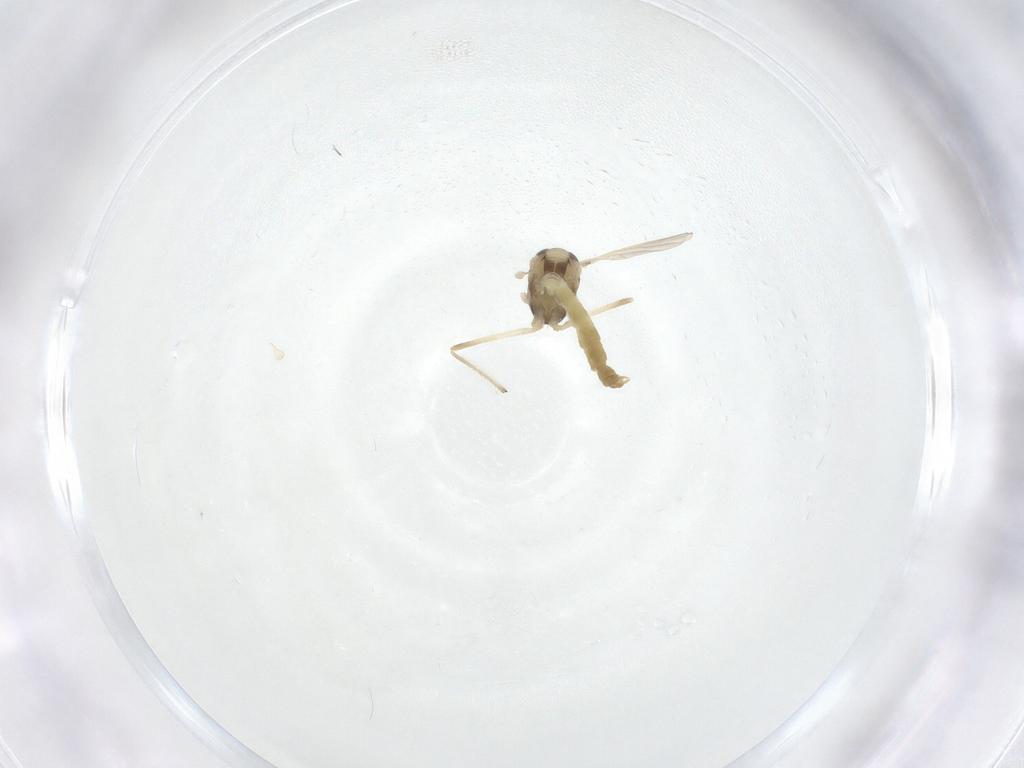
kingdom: Animalia
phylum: Arthropoda
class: Insecta
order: Diptera
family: Chironomidae
